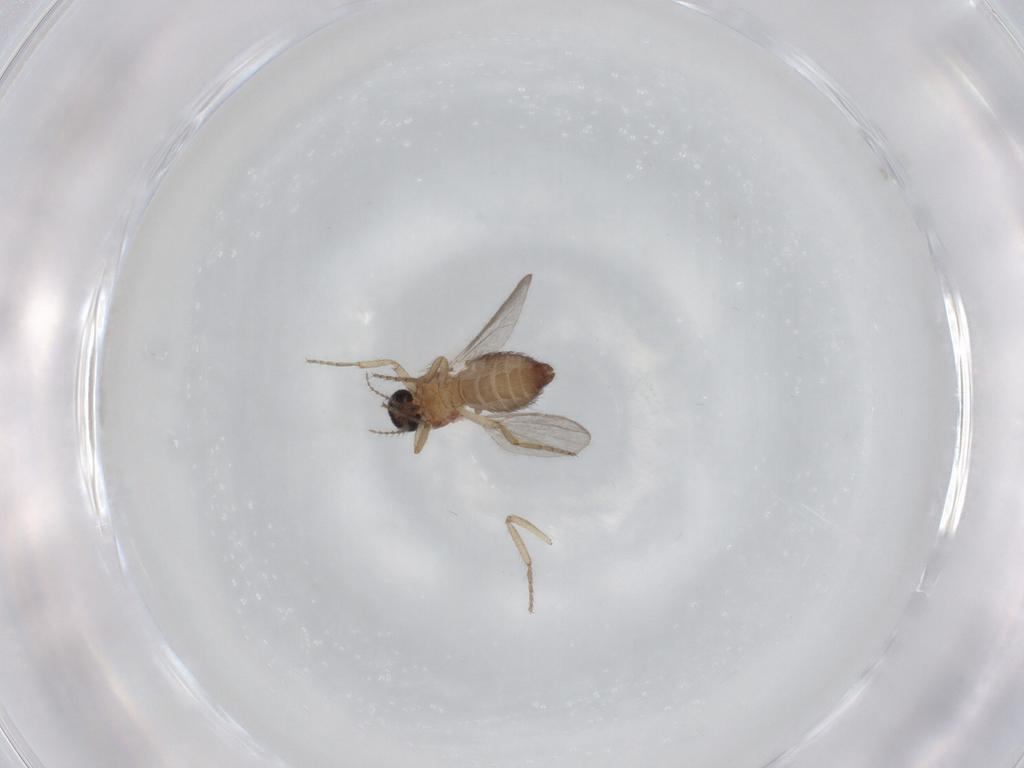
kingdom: Animalia
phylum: Arthropoda
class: Insecta
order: Diptera
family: Ceratopogonidae
